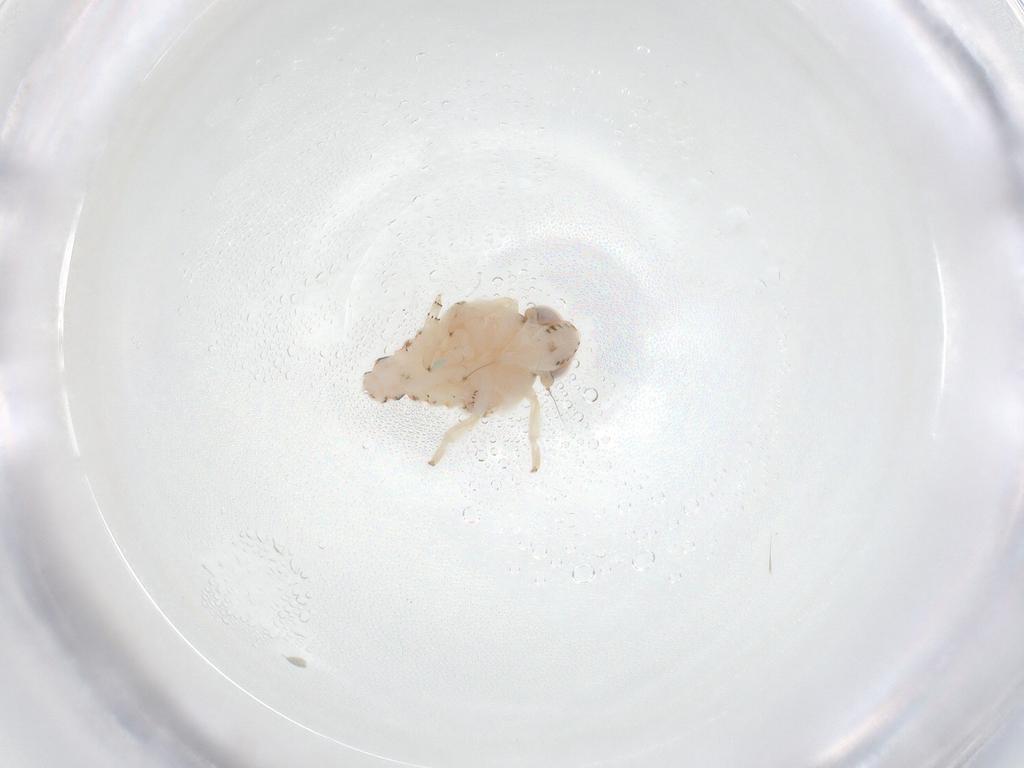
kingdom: Animalia
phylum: Arthropoda
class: Insecta
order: Hemiptera
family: Nogodinidae
